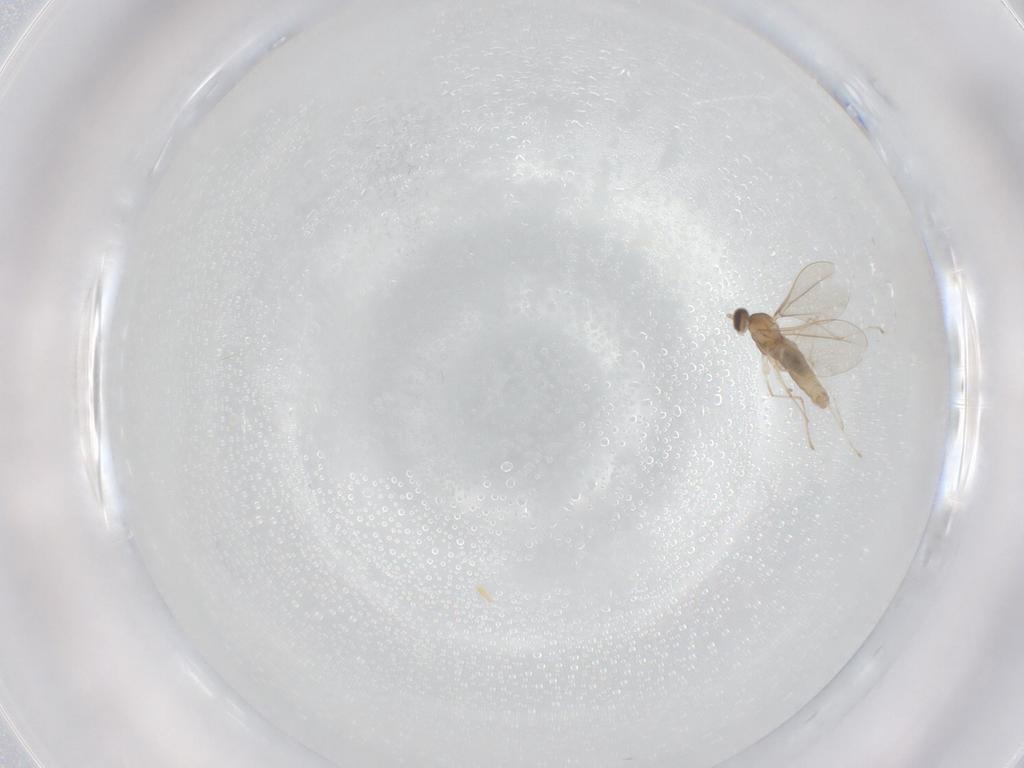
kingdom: Animalia
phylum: Arthropoda
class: Insecta
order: Diptera
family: Cecidomyiidae
